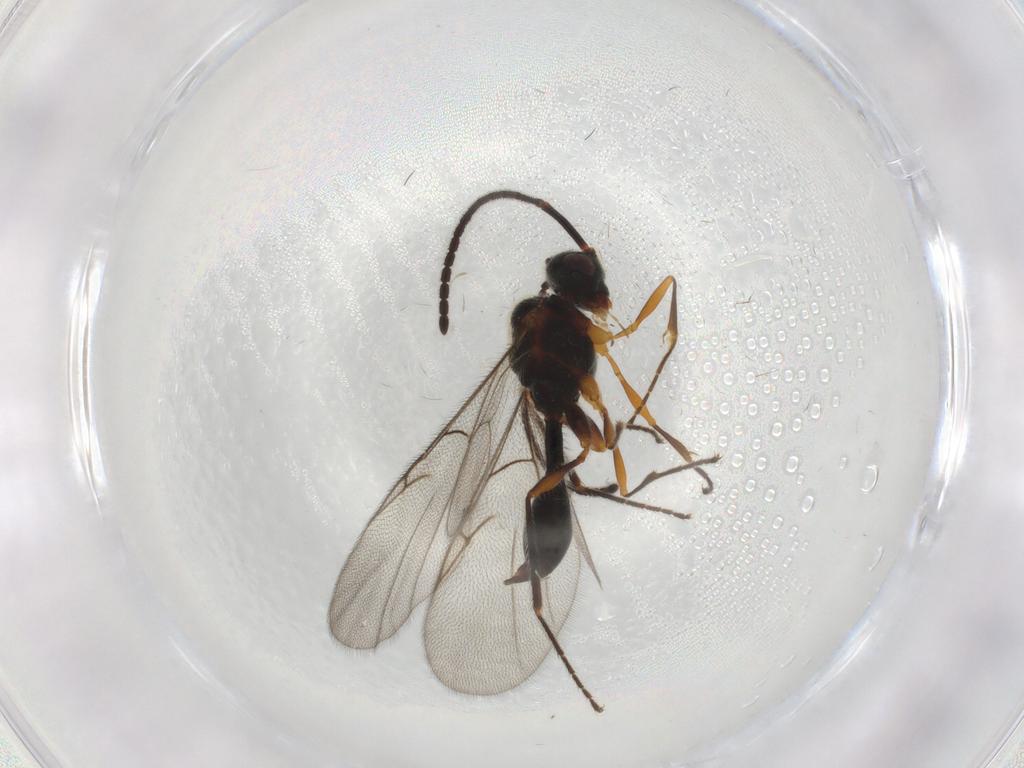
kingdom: Animalia
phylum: Arthropoda
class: Insecta
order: Hymenoptera
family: Diapriidae
